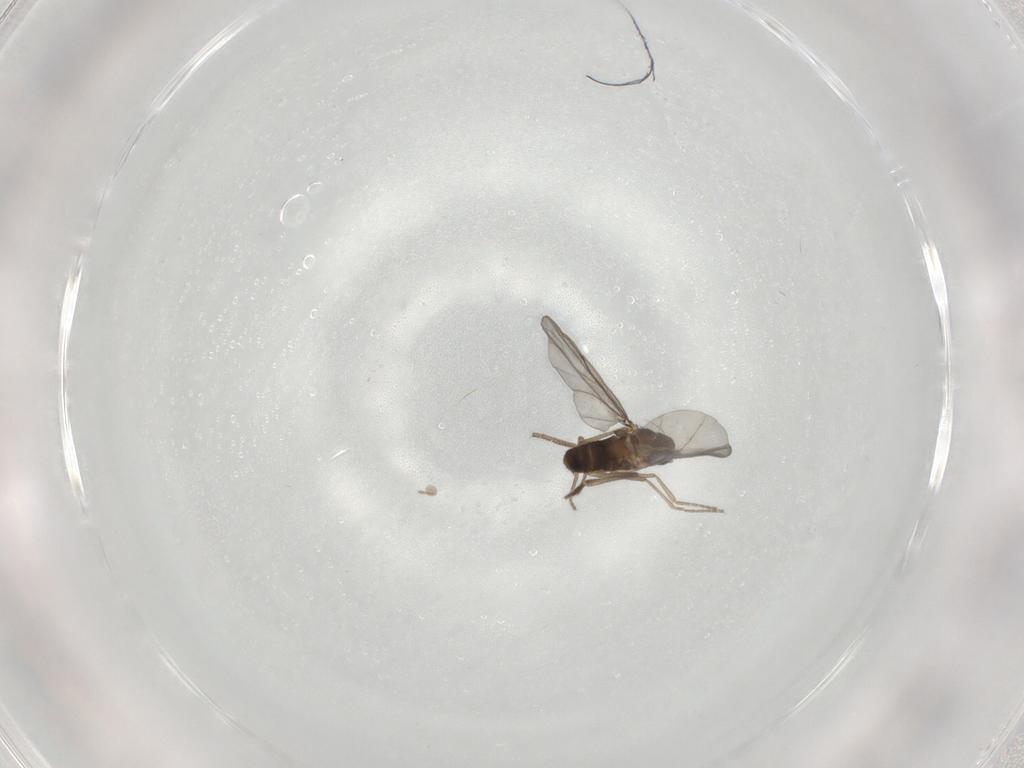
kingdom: Animalia
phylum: Arthropoda
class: Insecta
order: Diptera
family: Phoridae
